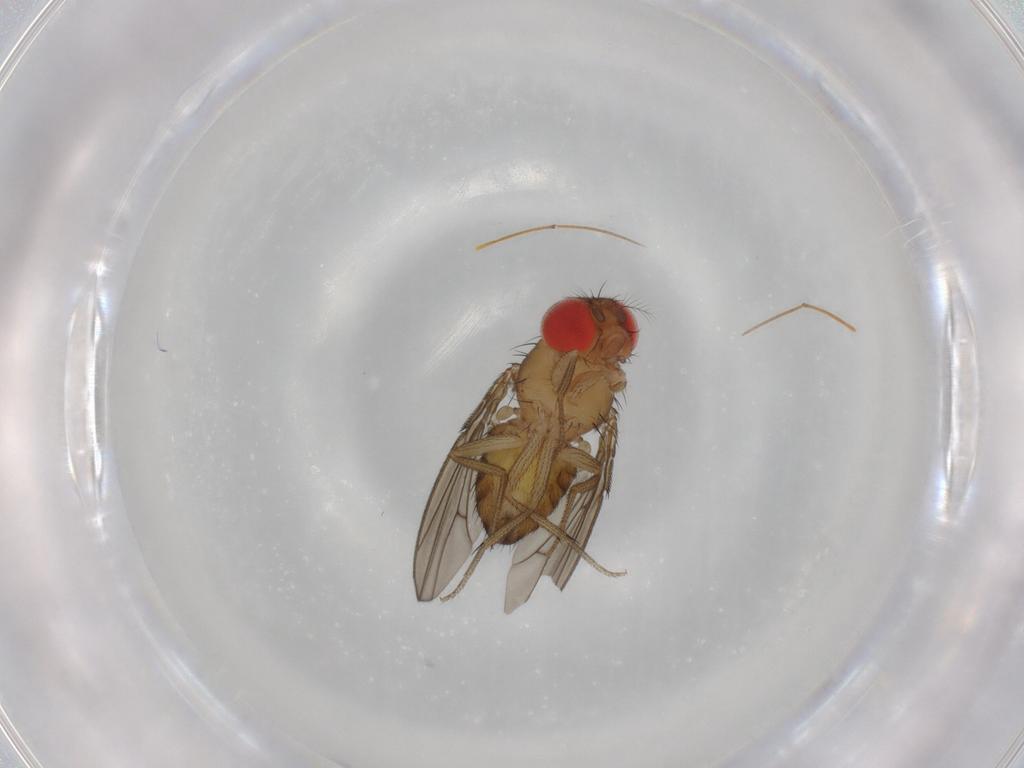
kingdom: Animalia
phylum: Arthropoda
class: Insecta
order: Diptera
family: Drosophilidae
